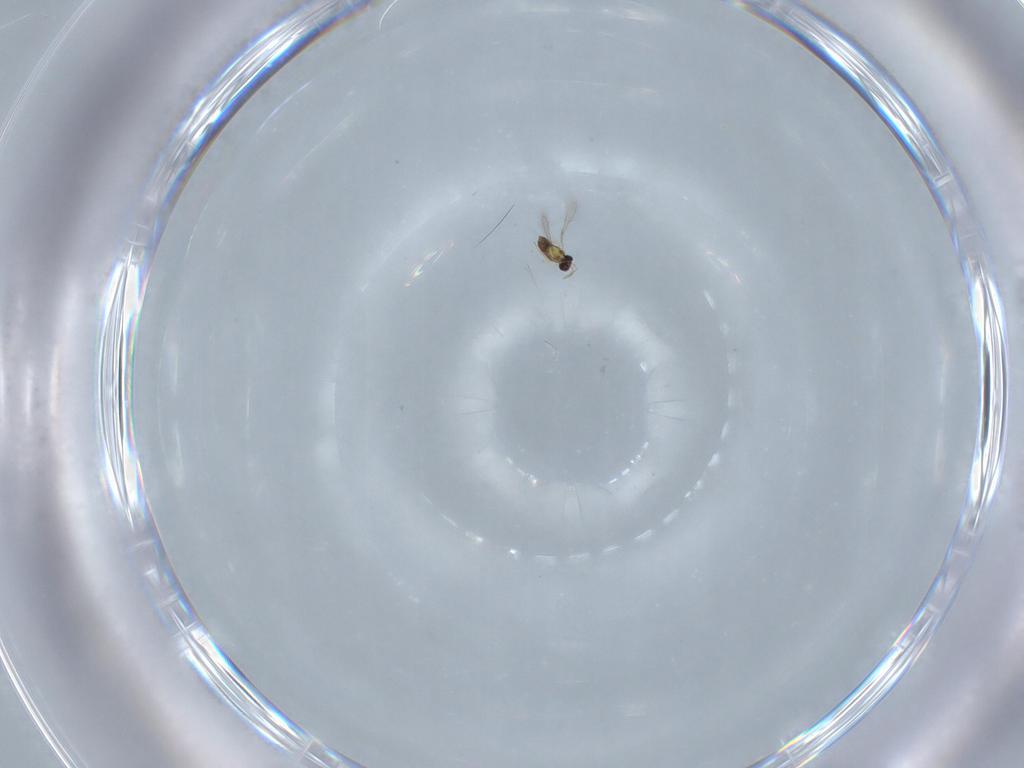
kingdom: Animalia
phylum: Arthropoda
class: Insecta
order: Hymenoptera
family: Mymaridae
